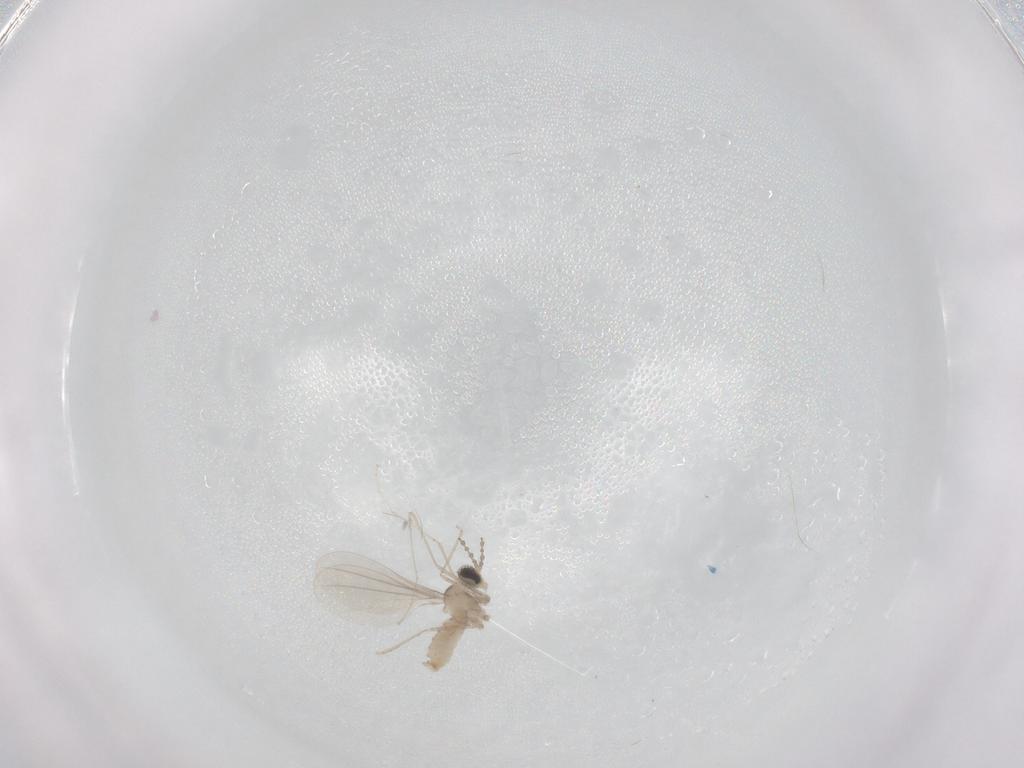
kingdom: Animalia
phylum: Arthropoda
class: Insecta
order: Diptera
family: Cecidomyiidae
